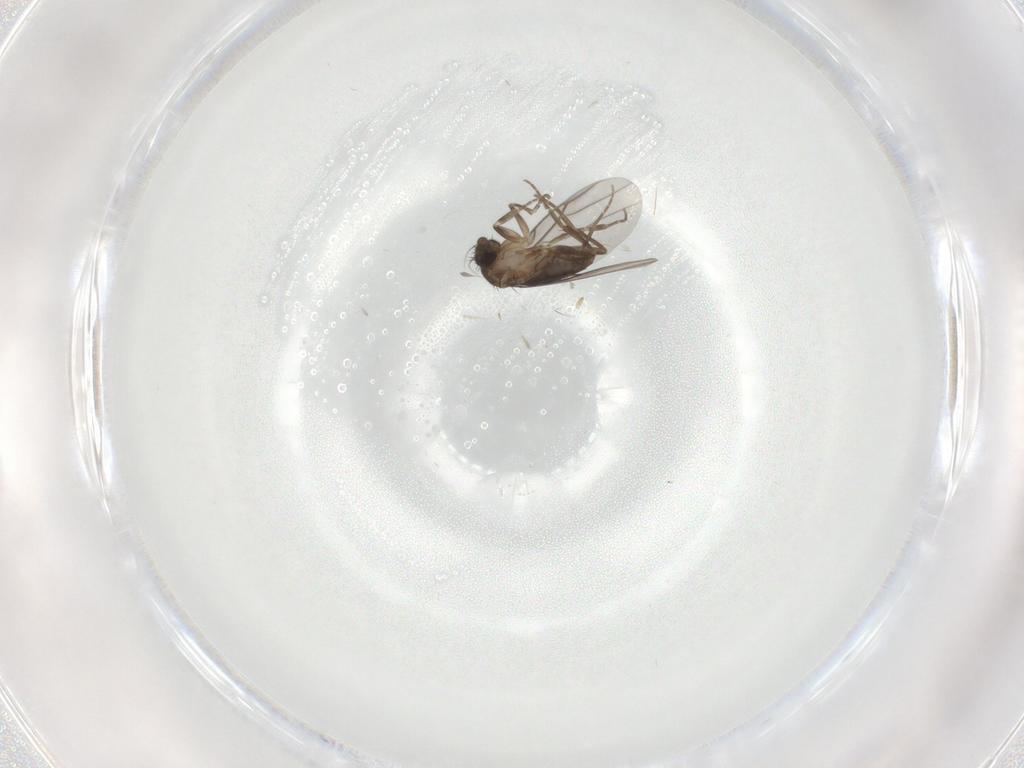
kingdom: Animalia
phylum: Arthropoda
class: Insecta
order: Diptera
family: Phoridae
